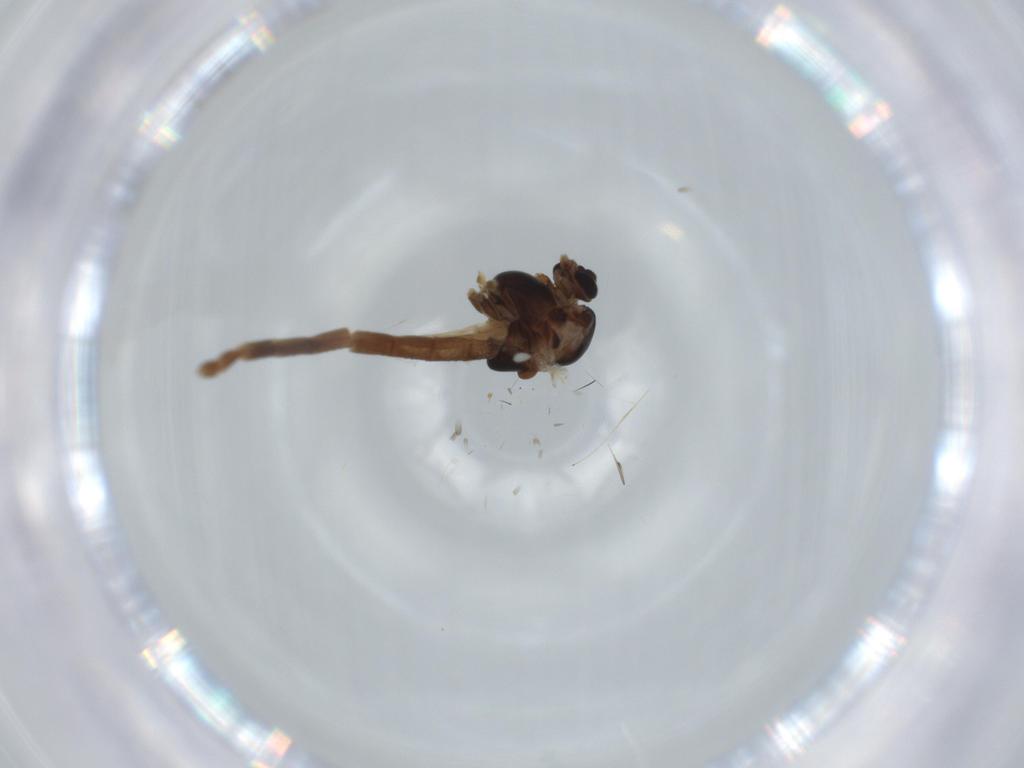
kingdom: Animalia
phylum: Arthropoda
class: Insecta
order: Diptera
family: Chironomidae
